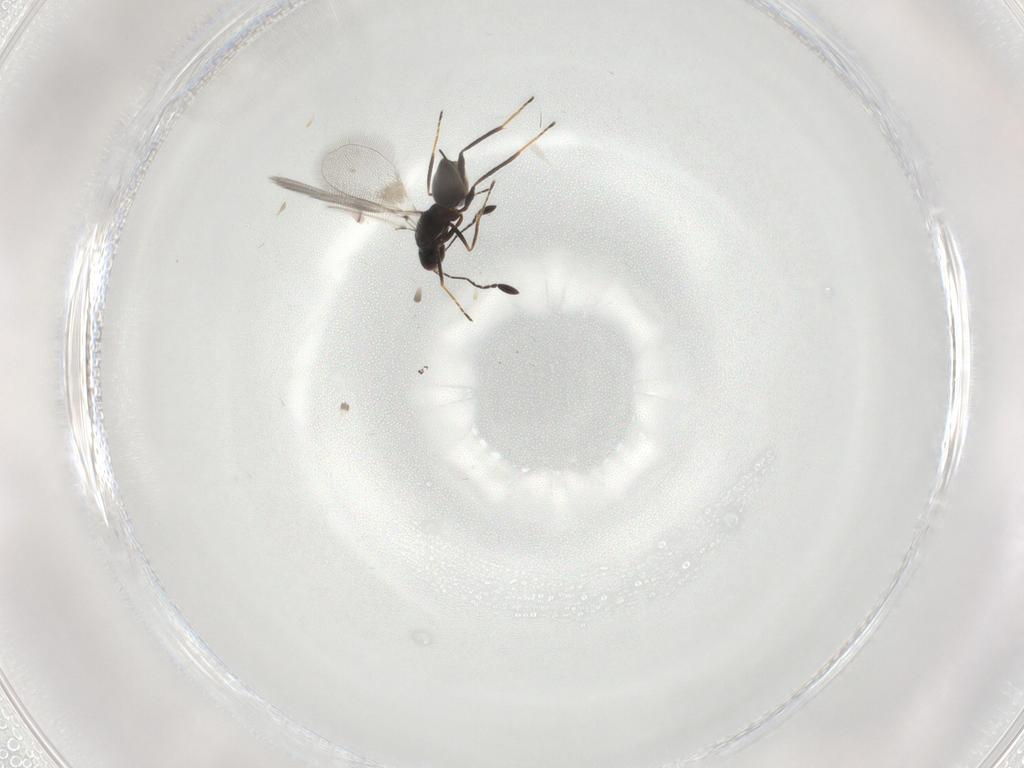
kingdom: Animalia
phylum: Arthropoda
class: Insecta
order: Hymenoptera
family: Mymaridae
